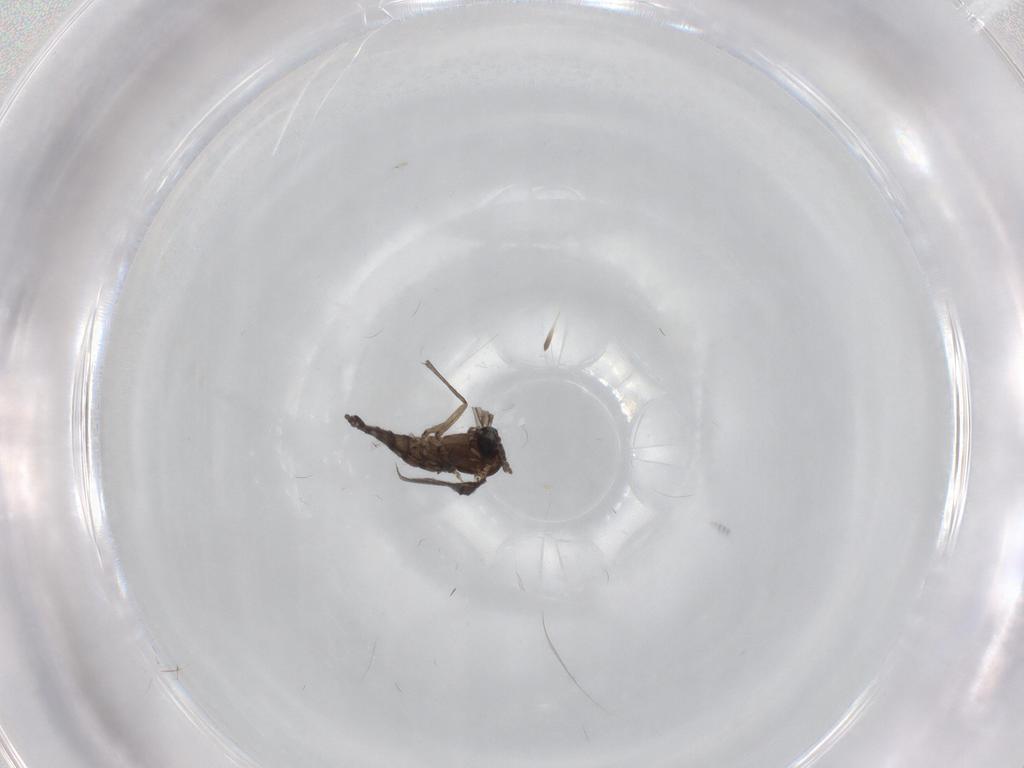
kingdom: Animalia
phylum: Arthropoda
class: Insecta
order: Diptera
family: Sciaridae
